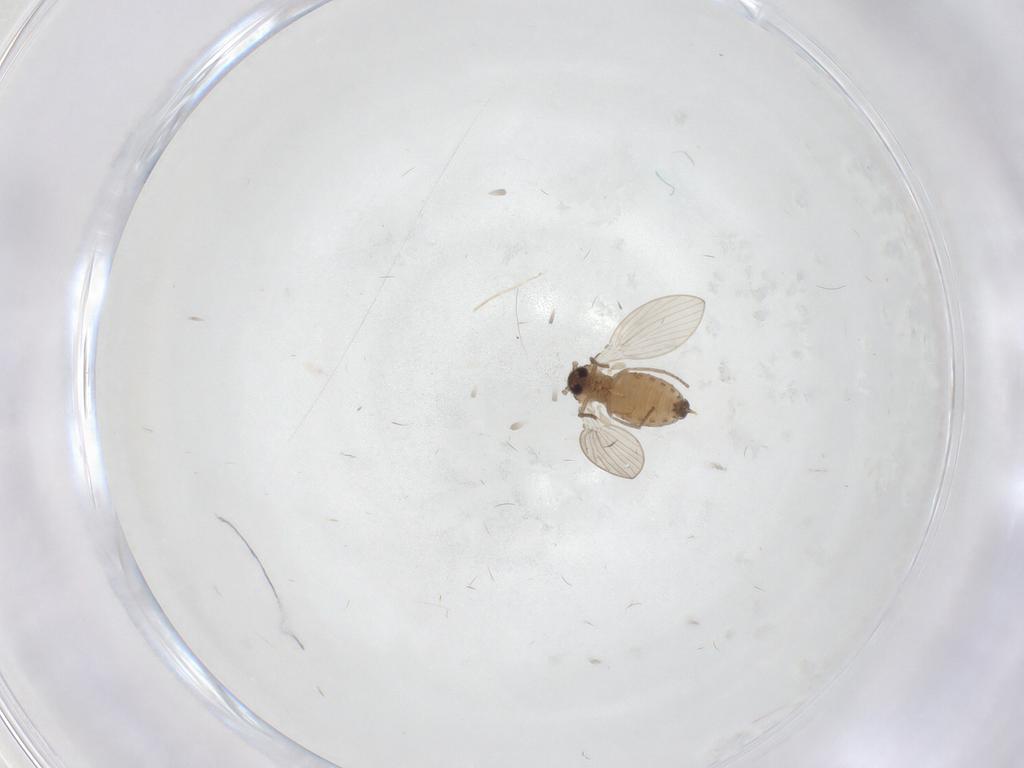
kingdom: Animalia
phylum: Arthropoda
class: Insecta
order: Diptera
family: Psychodidae
